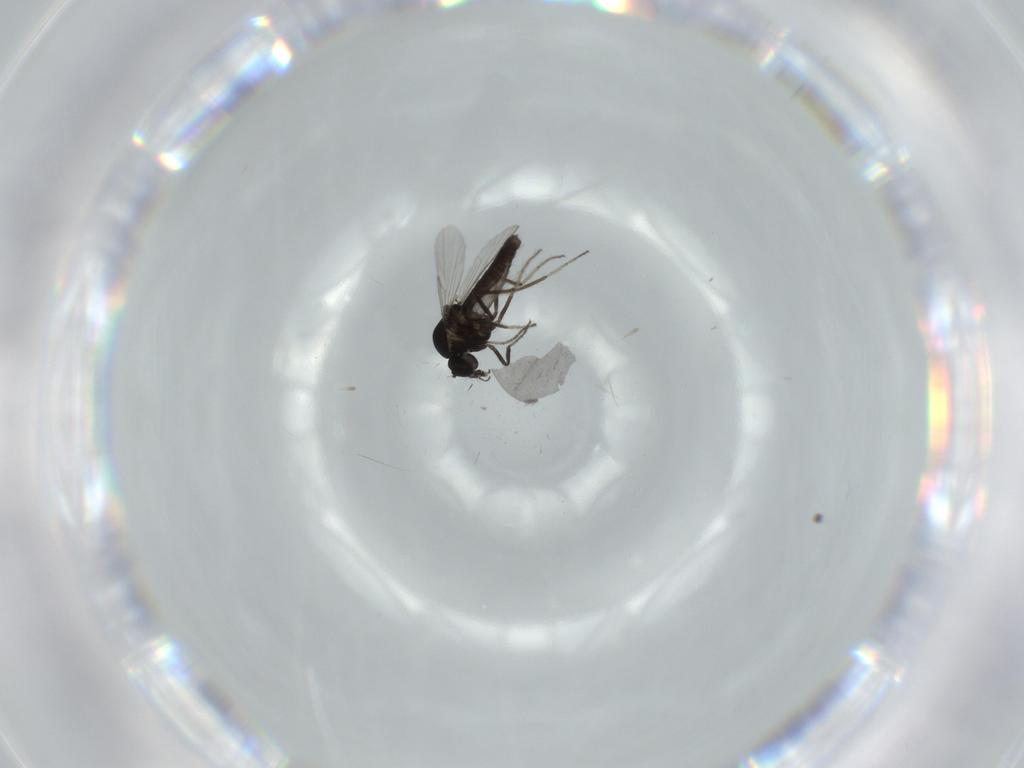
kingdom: Animalia
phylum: Arthropoda
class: Insecta
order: Diptera
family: Ceratopogonidae
